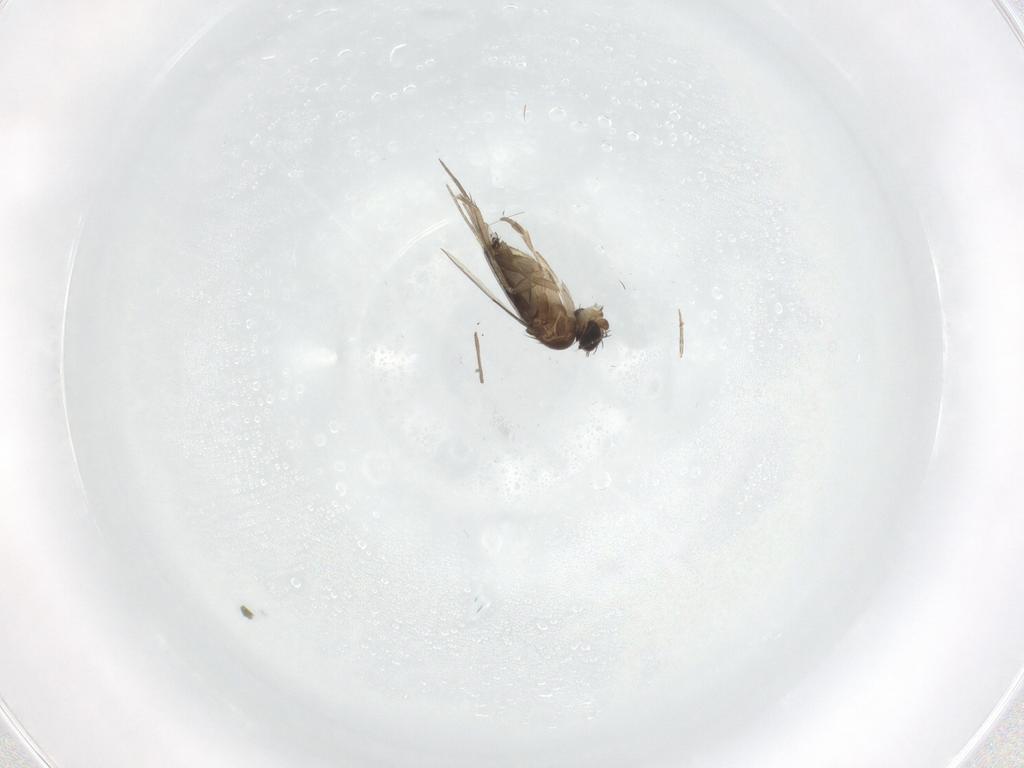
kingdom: Animalia
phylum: Arthropoda
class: Insecta
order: Diptera
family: Phoridae
